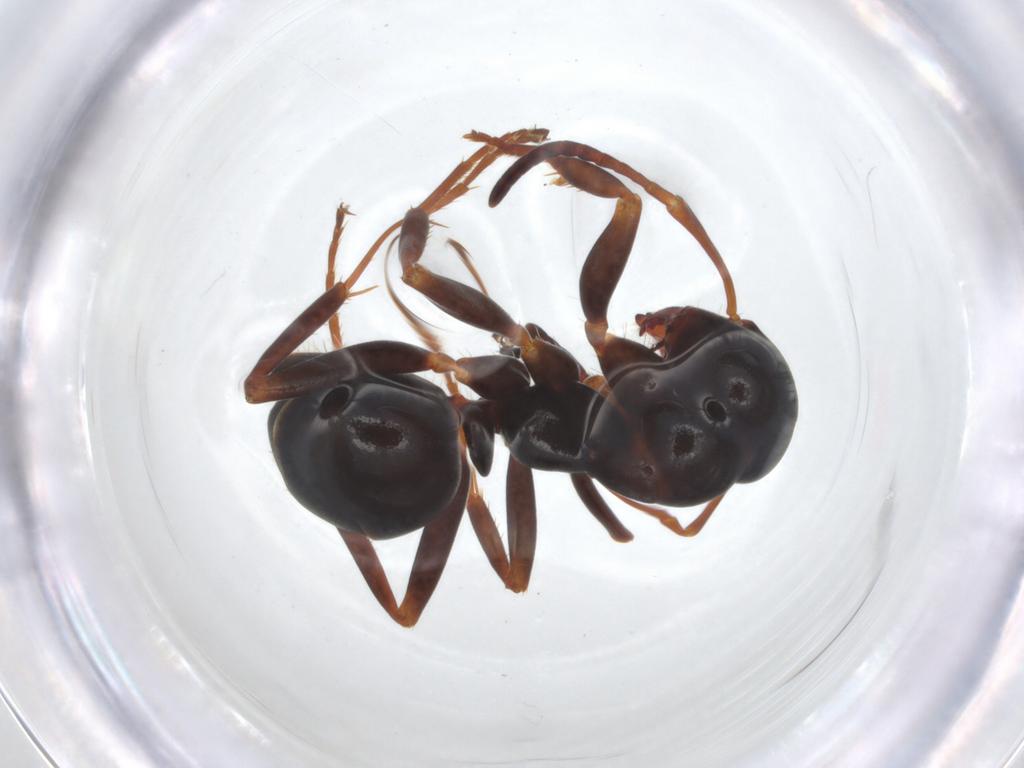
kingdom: Animalia
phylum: Arthropoda
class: Insecta
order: Hymenoptera
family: Formicidae
